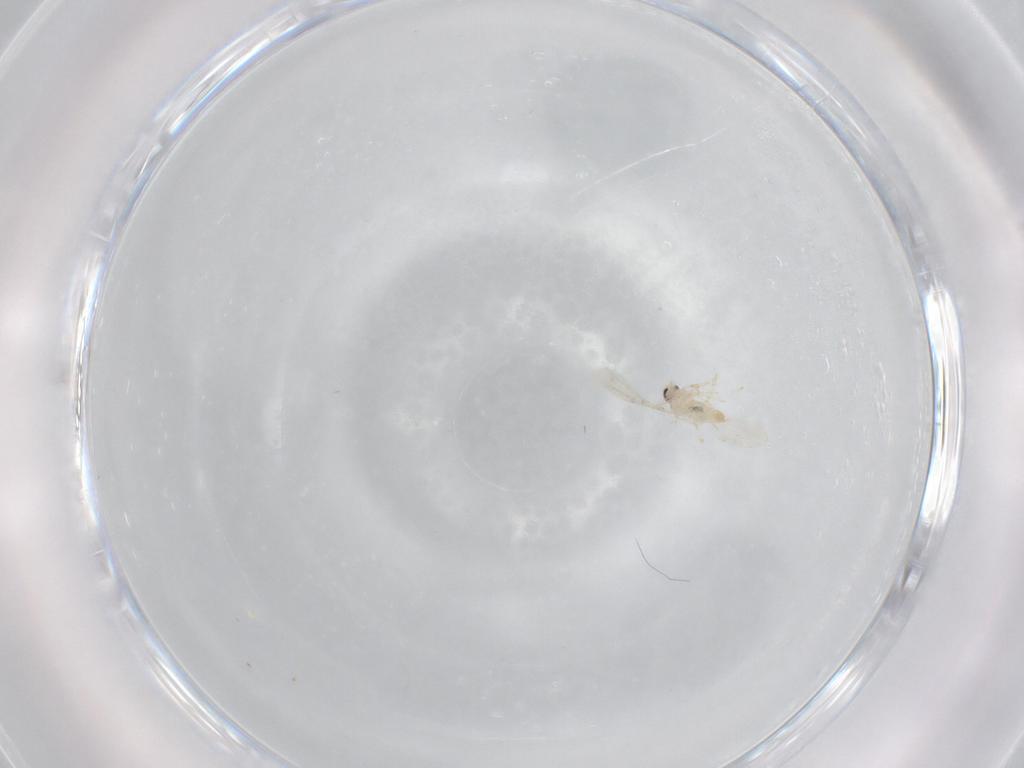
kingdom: Animalia
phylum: Arthropoda
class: Insecta
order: Diptera
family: Cecidomyiidae
